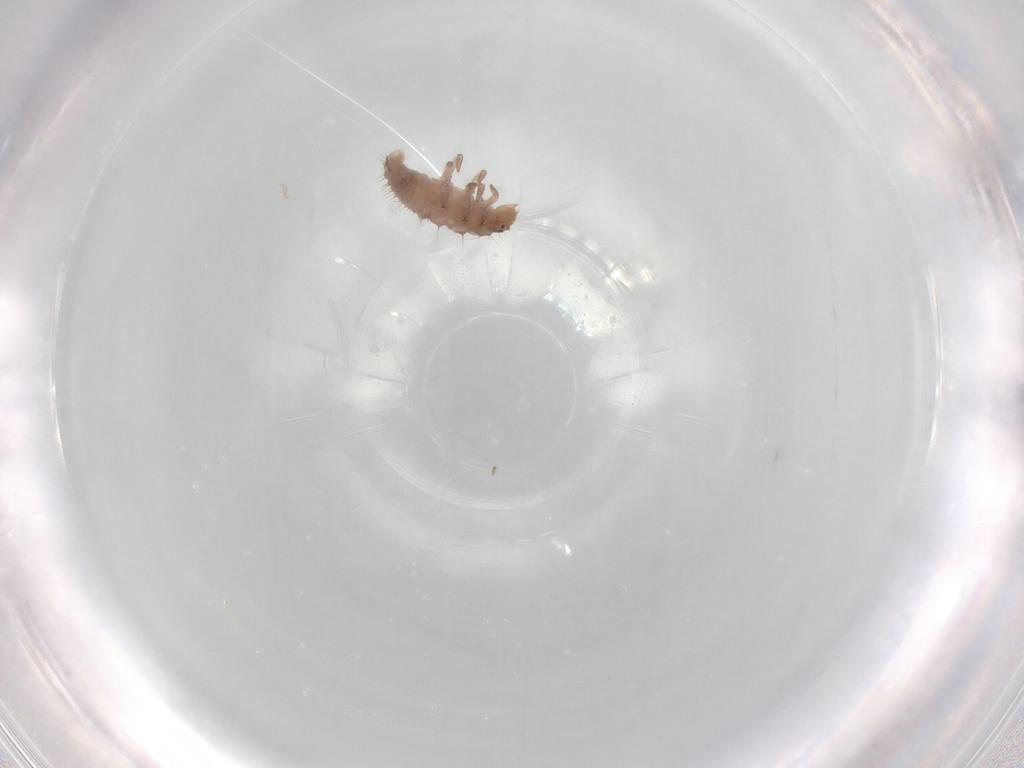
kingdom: Animalia
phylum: Arthropoda
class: Insecta
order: Coleoptera
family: Coccinellidae
